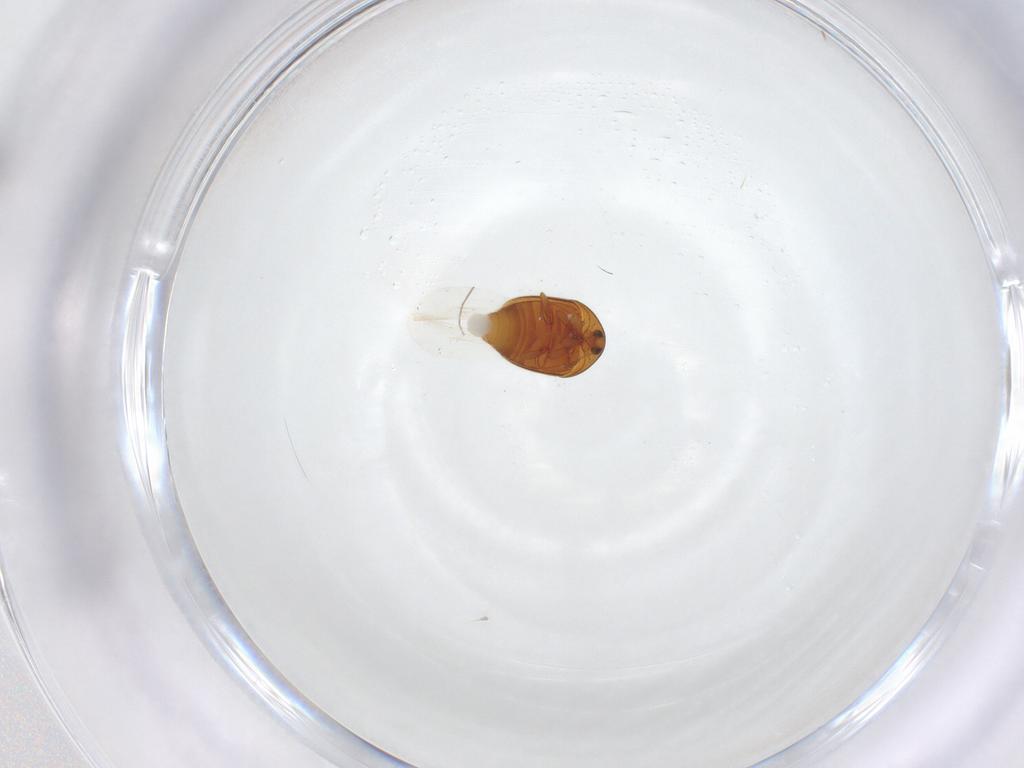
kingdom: Animalia
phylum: Arthropoda
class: Insecta
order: Coleoptera
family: Corylophidae
